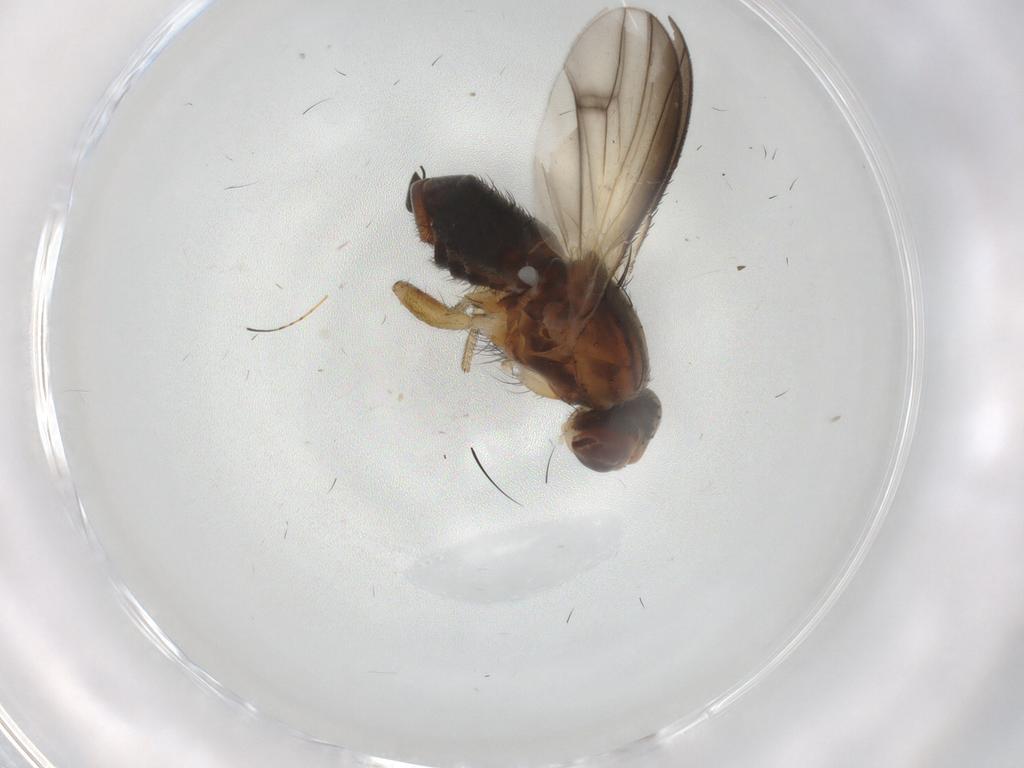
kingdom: Animalia
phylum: Arthropoda
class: Insecta
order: Diptera
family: Heleomyzidae
